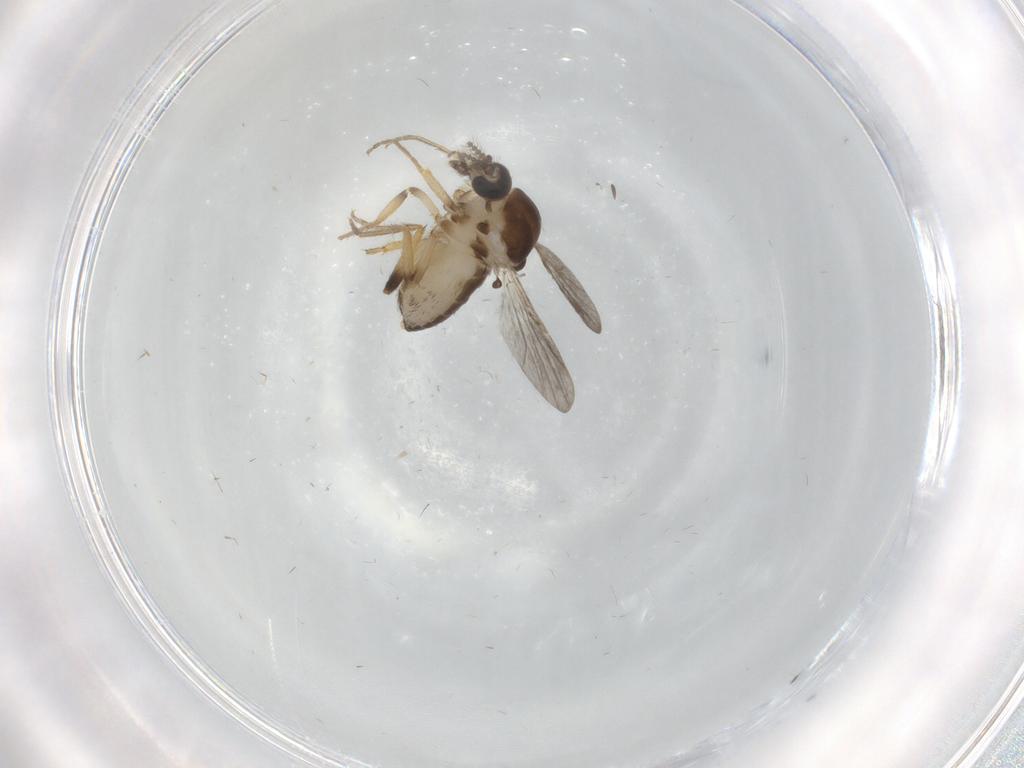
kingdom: Animalia
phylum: Arthropoda
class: Insecta
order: Diptera
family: Ceratopogonidae
